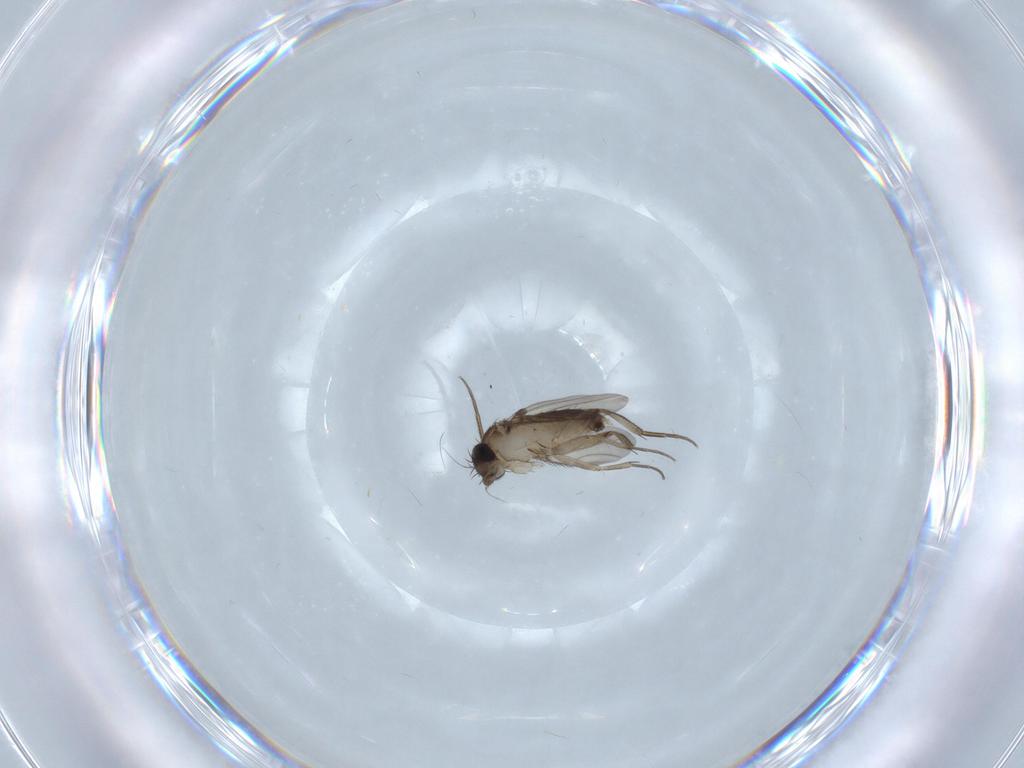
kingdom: Animalia
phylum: Arthropoda
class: Insecta
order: Diptera
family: Phoridae
